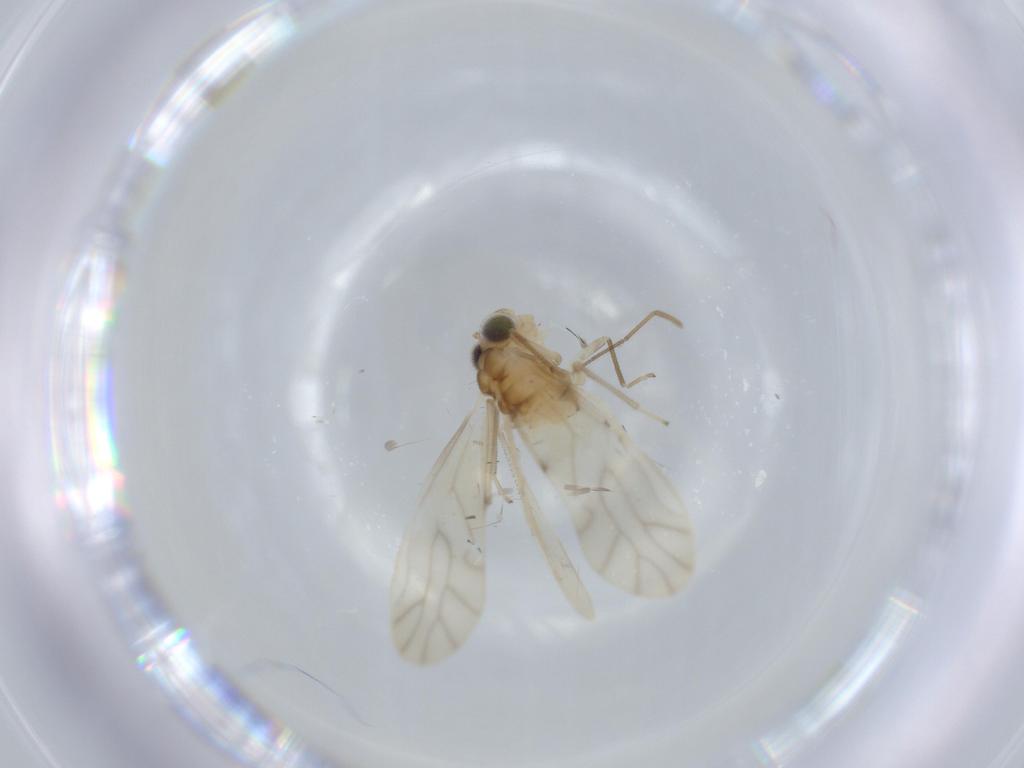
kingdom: Animalia
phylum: Arthropoda
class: Insecta
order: Psocodea
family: Caeciliusidae
